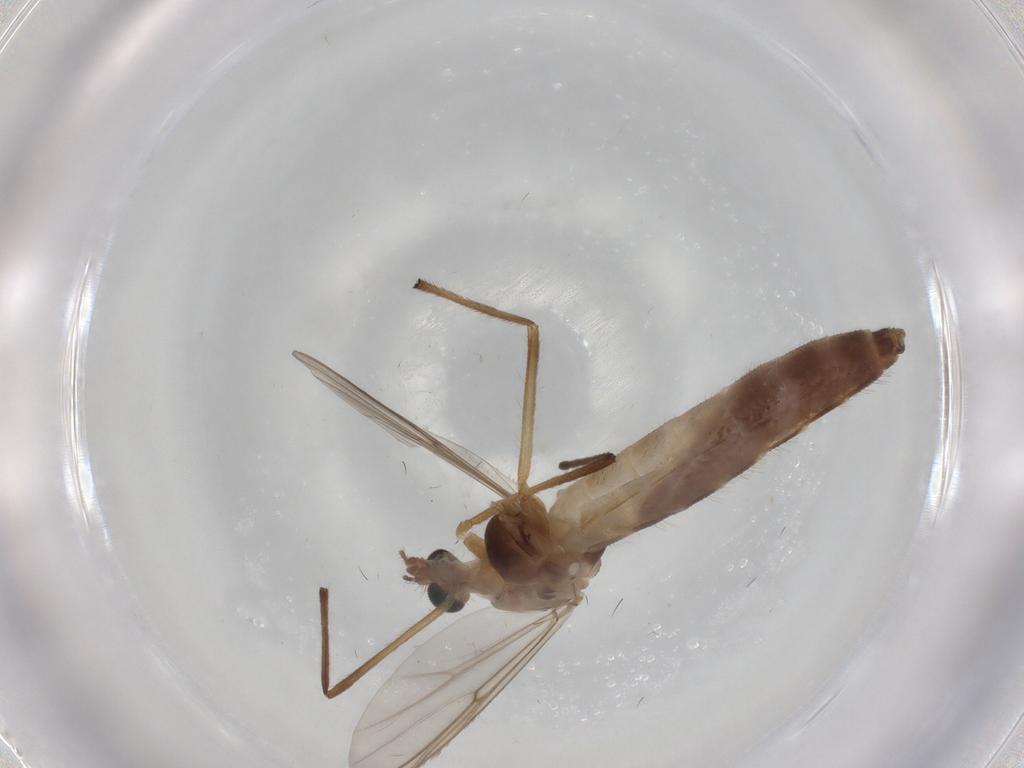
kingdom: Animalia
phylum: Arthropoda
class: Insecta
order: Diptera
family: Chironomidae
